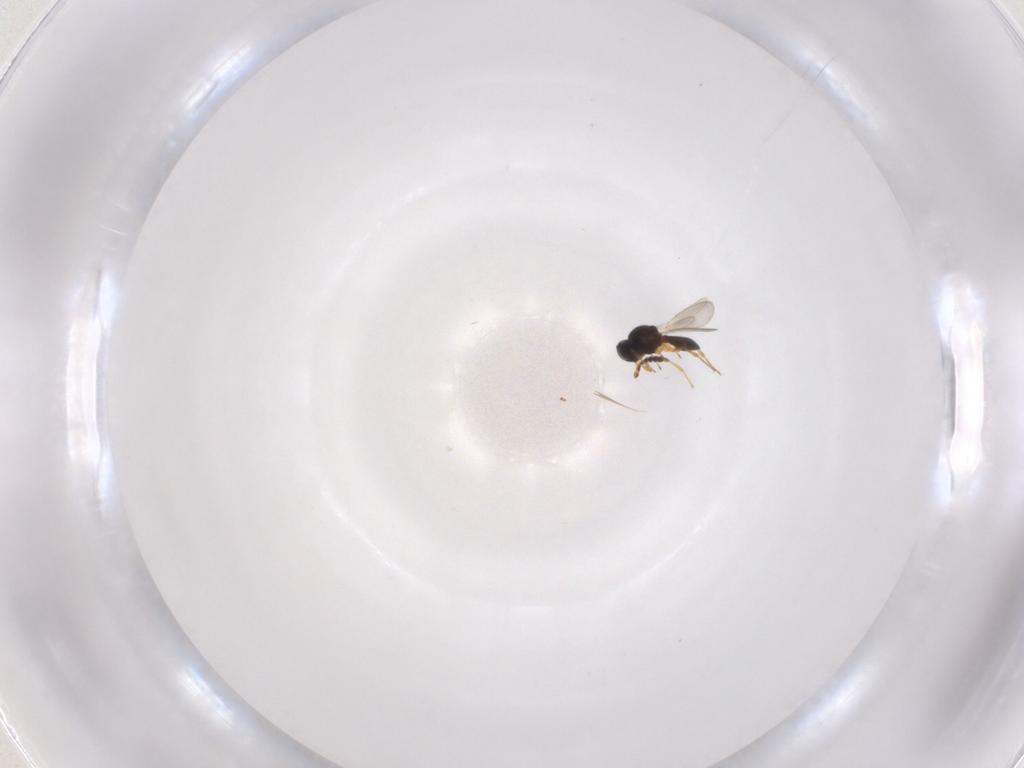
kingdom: Animalia
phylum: Arthropoda
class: Insecta
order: Hymenoptera
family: Platygastridae
